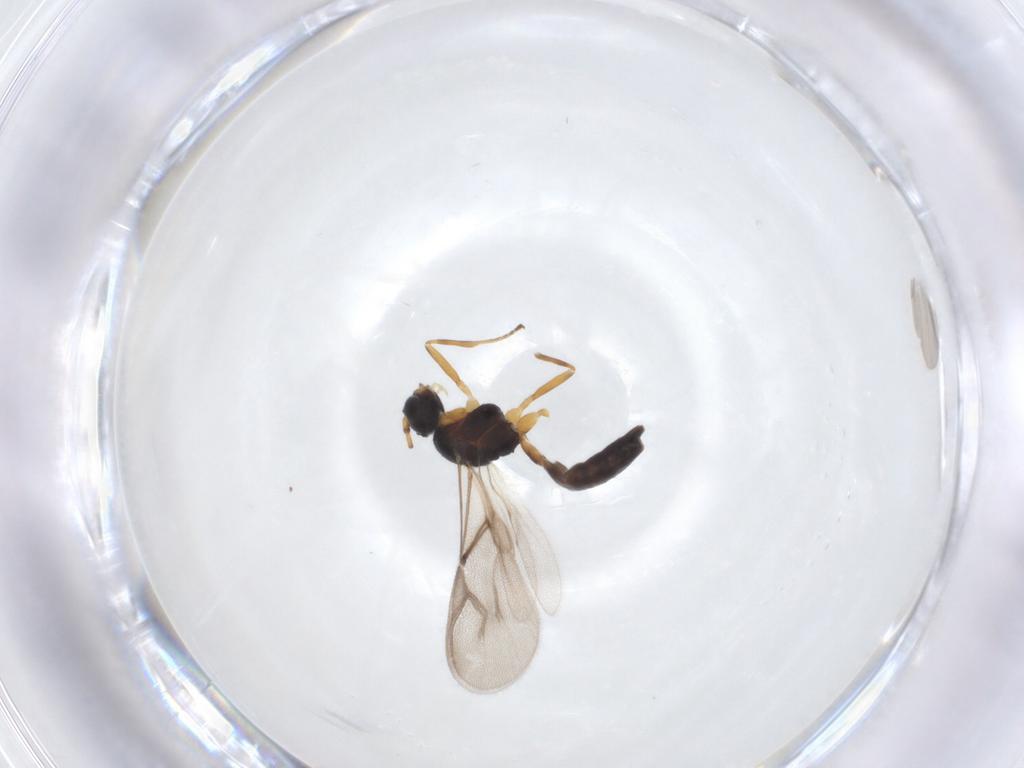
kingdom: Animalia
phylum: Arthropoda
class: Insecta
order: Hymenoptera
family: Braconidae
